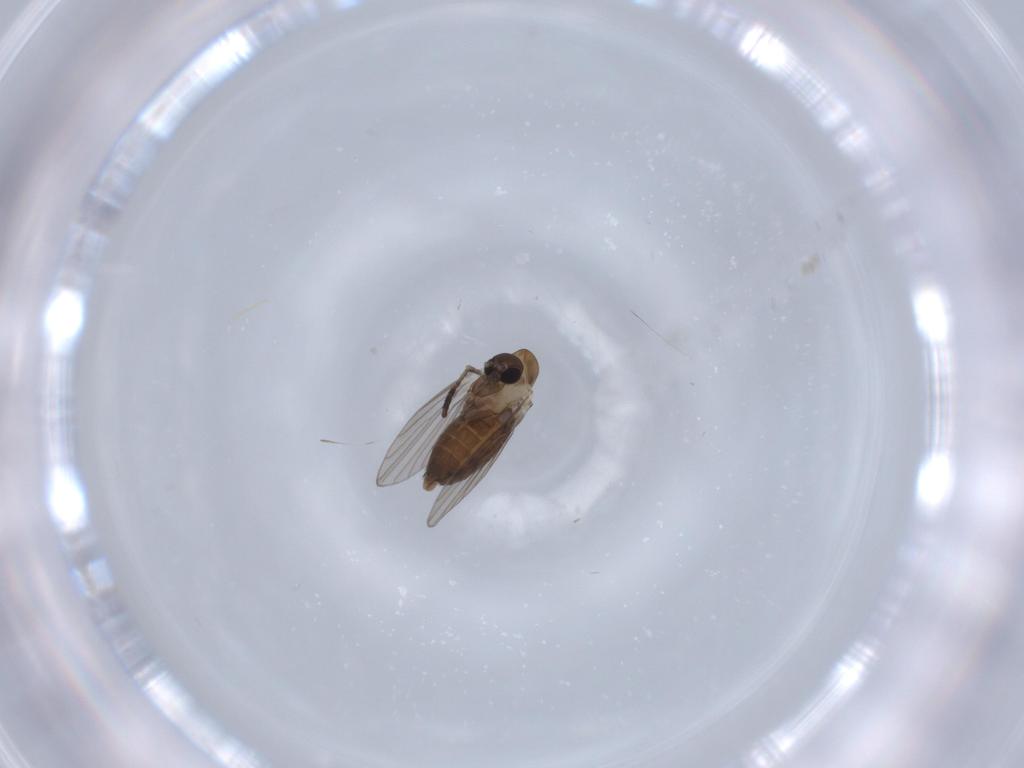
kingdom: Animalia
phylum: Arthropoda
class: Insecta
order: Diptera
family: Psychodidae
